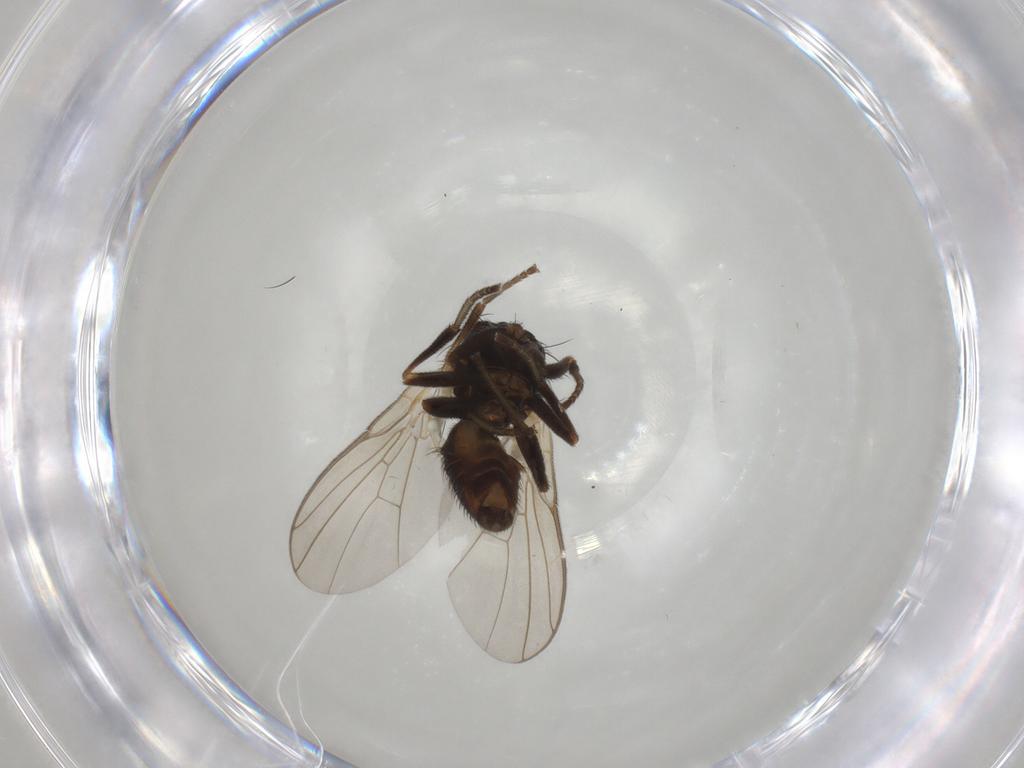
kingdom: Animalia
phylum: Arthropoda
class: Insecta
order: Diptera
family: Agromyzidae
